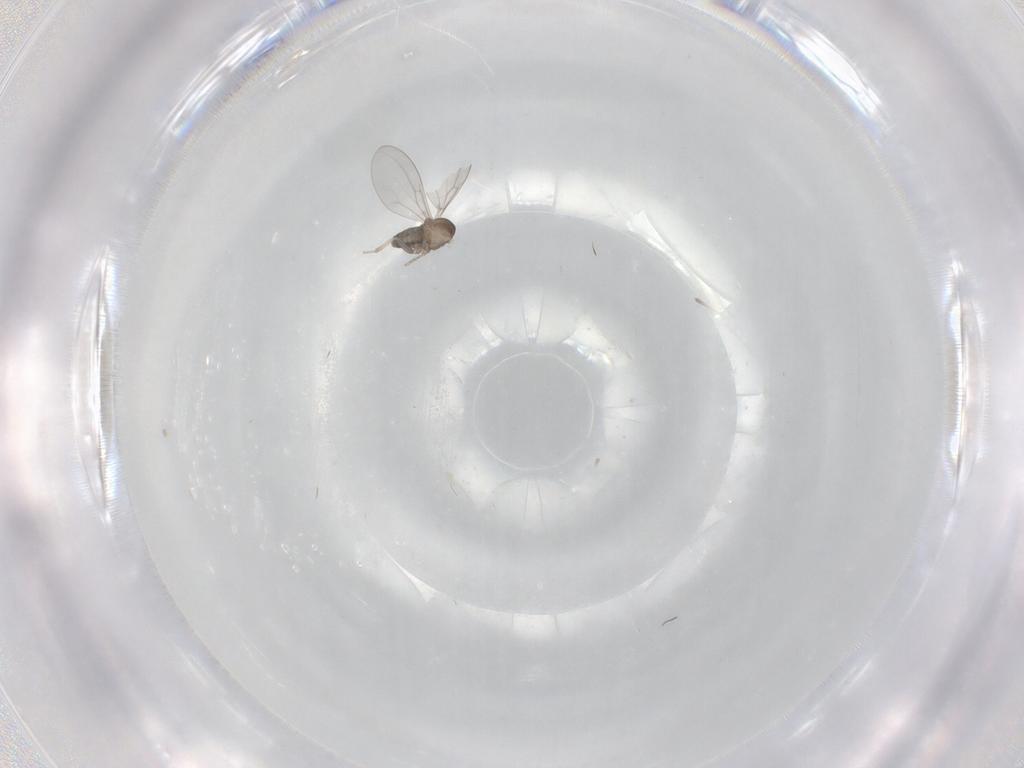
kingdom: Animalia
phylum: Arthropoda
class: Insecta
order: Diptera
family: Cecidomyiidae
